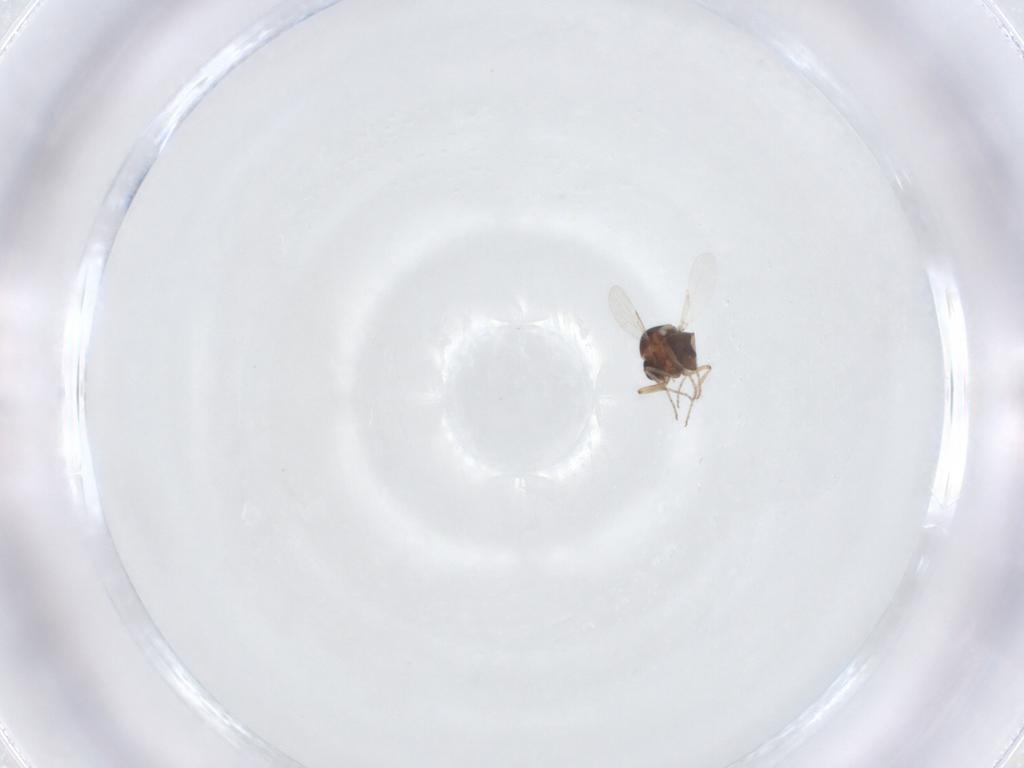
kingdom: Animalia
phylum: Arthropoda
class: Insecta
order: Diptera
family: Ceratopogonidae
